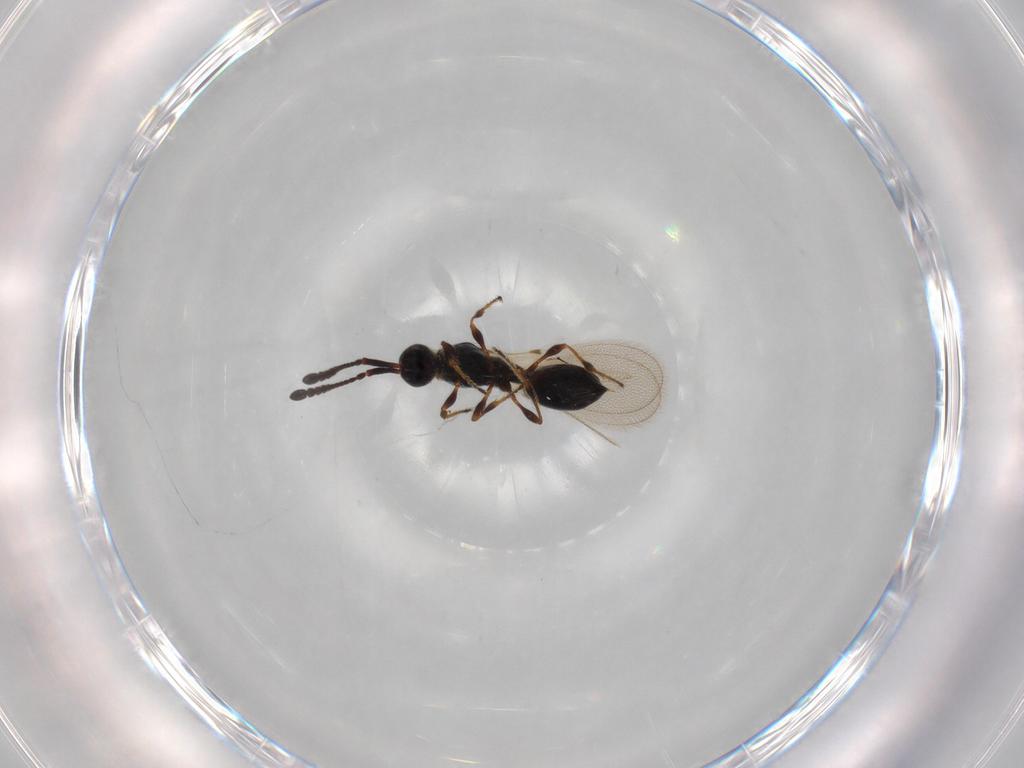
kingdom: Animalia
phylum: Arthropoda
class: Insecta
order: Hymenoptera
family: Diapriidae
